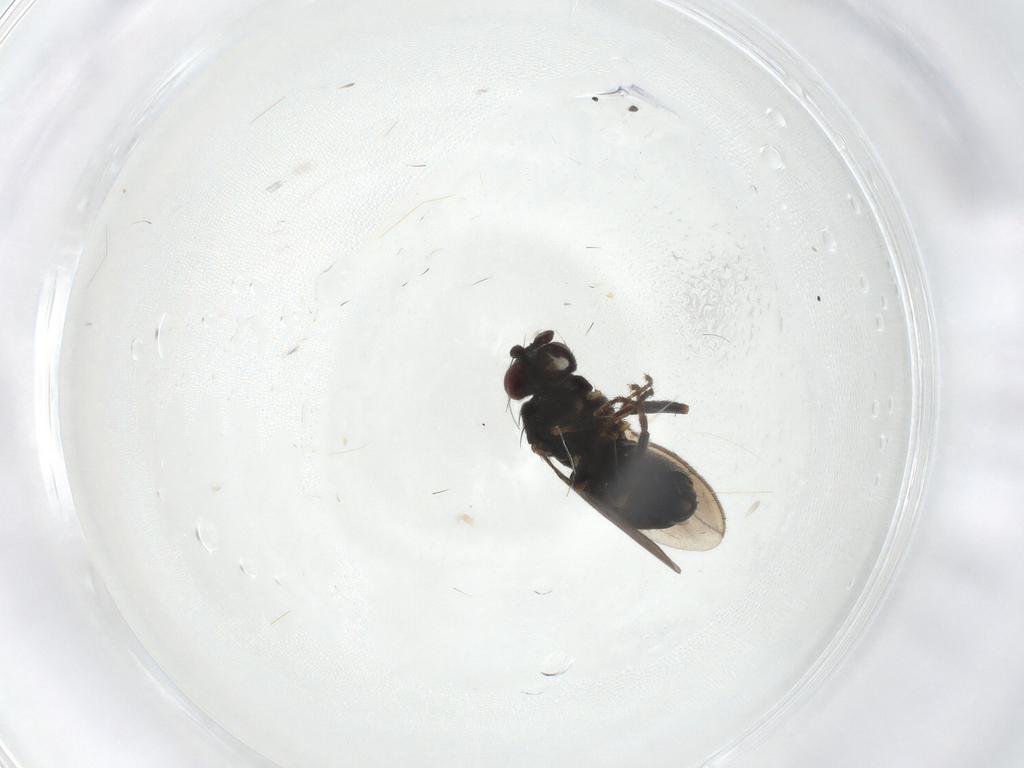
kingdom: Animalia
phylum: Arthropoda
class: Insecta
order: Diptera
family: Sphaeroceridae
